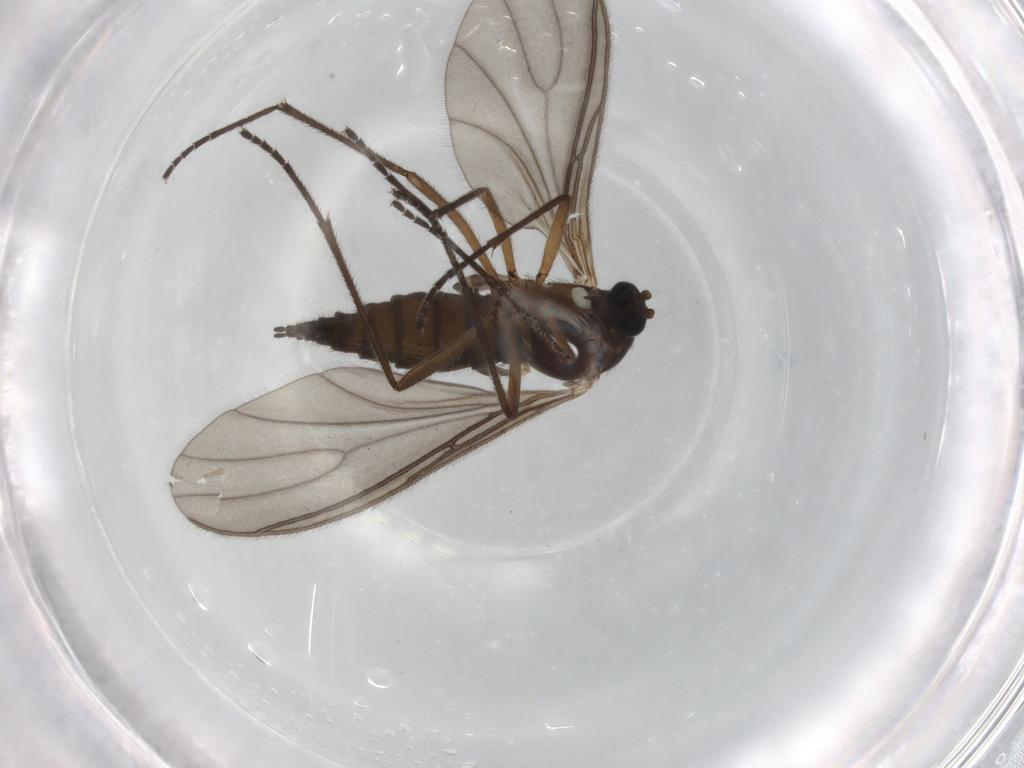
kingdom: Animalia
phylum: Arthropoda
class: Insecta
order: Diptera
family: Sciaridae
